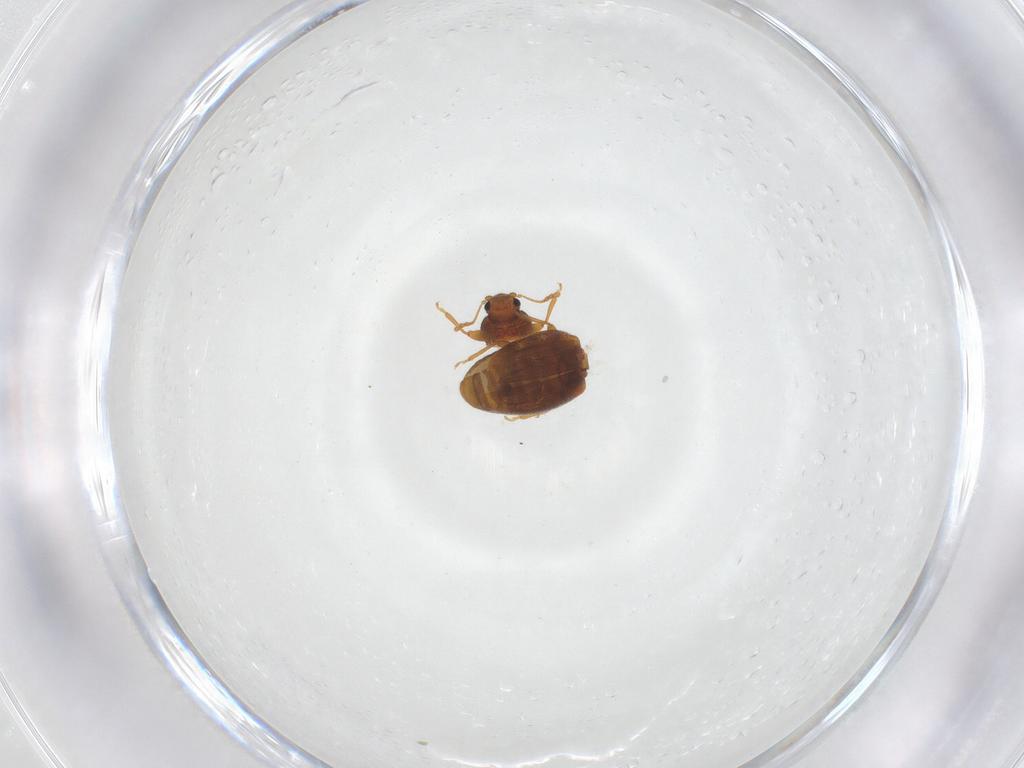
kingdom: Animalia
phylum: Arthropoda
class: Insecta
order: Coleoptera
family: Latridiidae
